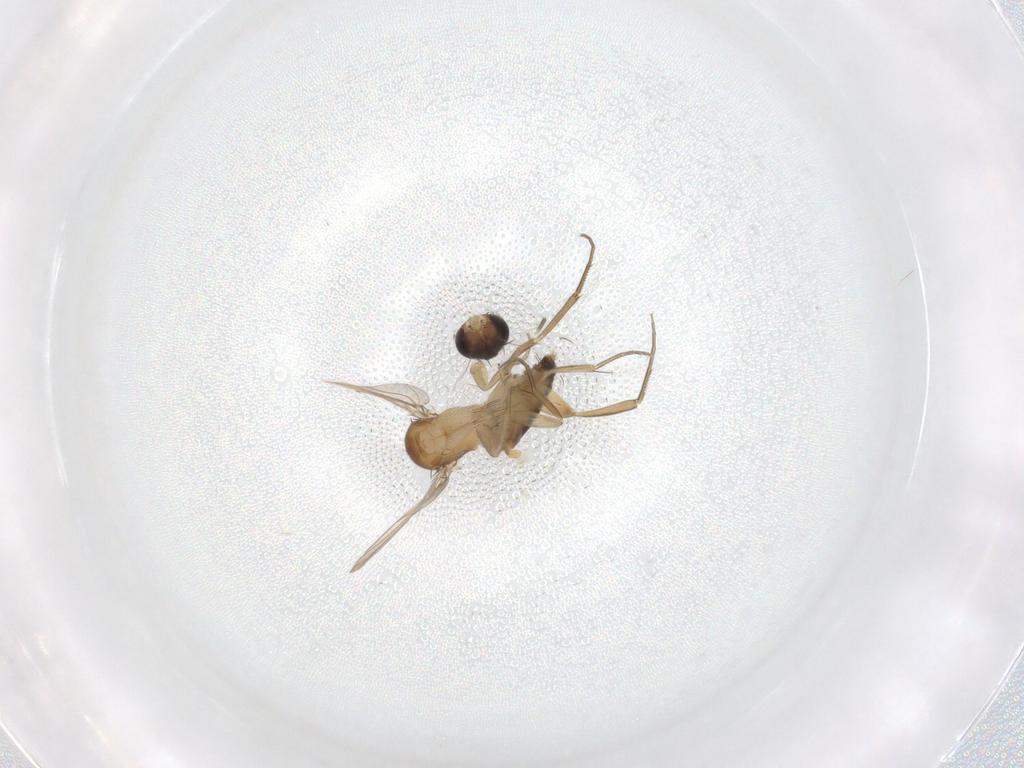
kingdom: Animalia
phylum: Arthropoda
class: Insecta
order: Diptera
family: Phoridae
